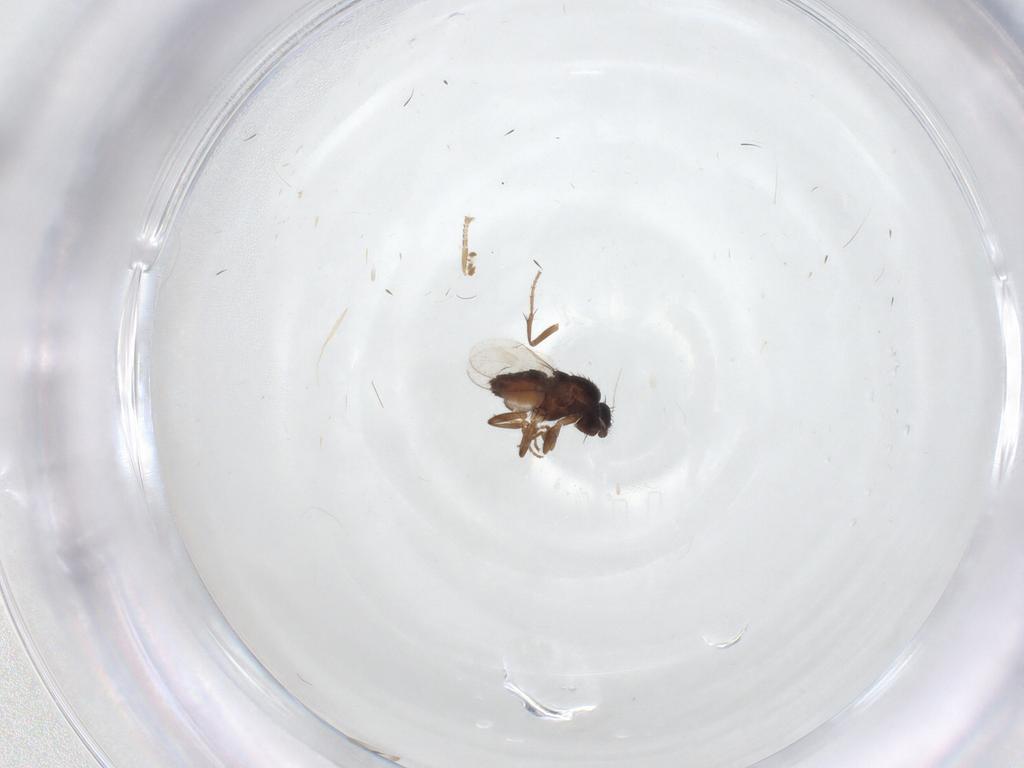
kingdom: Animalia
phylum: Arthropoda
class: Insecta
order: Diptera
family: Sphaeroceridae
